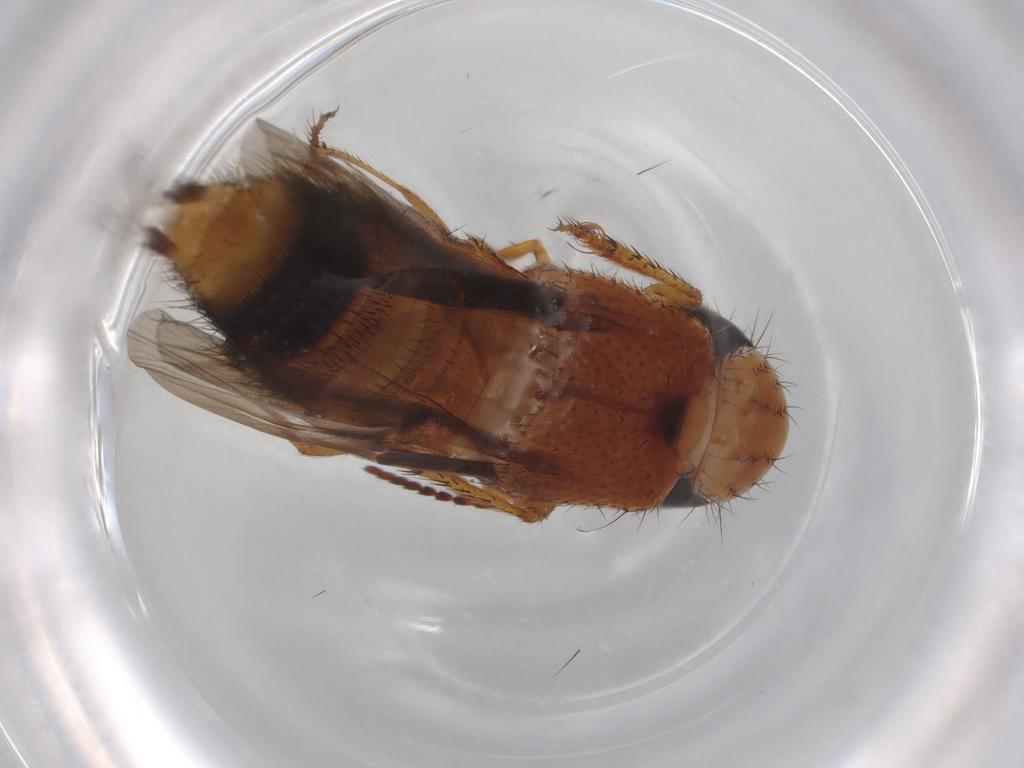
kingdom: Animalia
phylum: Arthropoda
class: Insecta
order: Coleoptera
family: Staphylinidae
